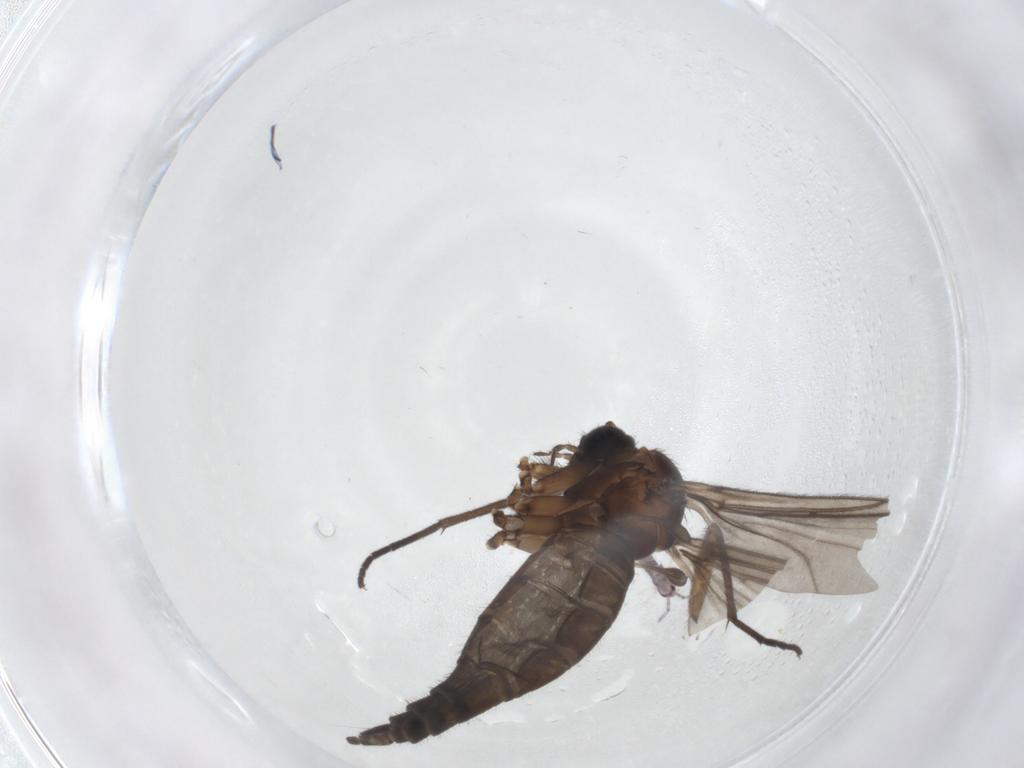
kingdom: Animalia
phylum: Arthropoda
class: Insecta
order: Diptera
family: Sciaridae
